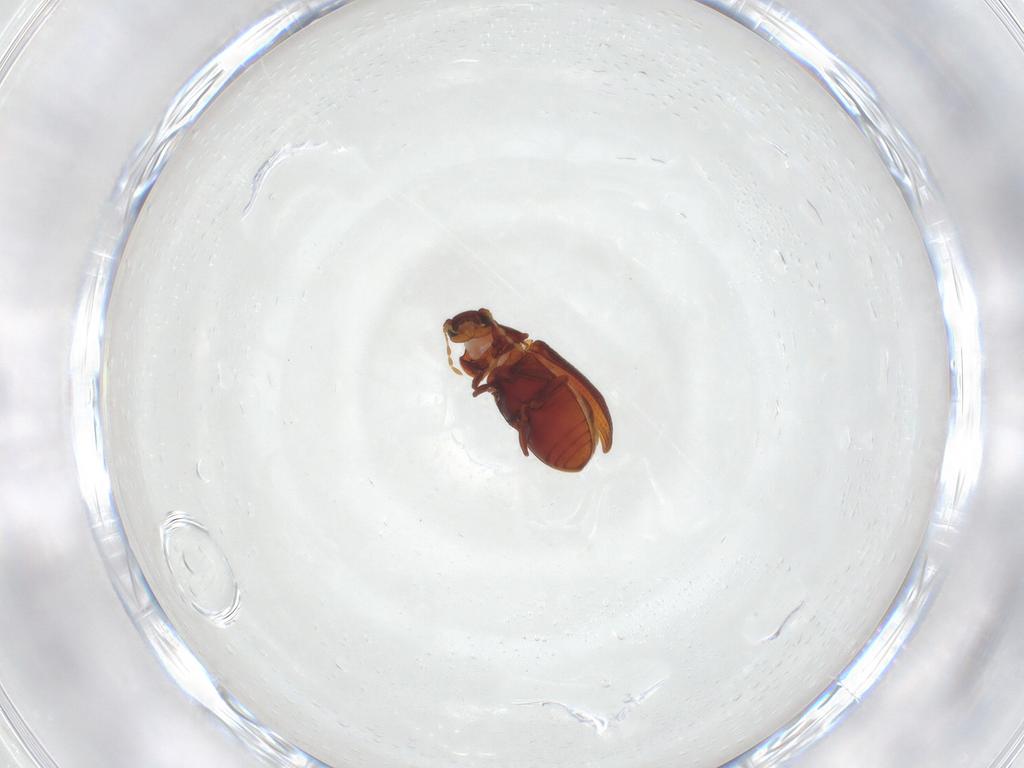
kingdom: Animalia
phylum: Arthropoda
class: Insecta
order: Coleoptera
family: Ptinidae
